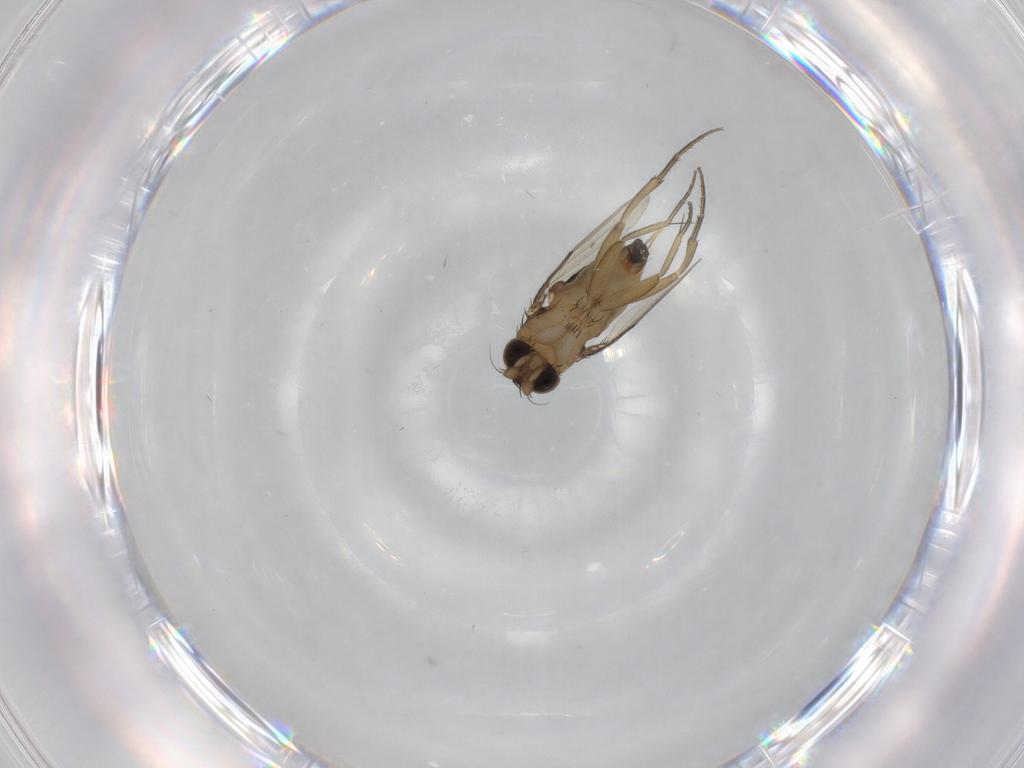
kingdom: Animalia
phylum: Arthropoda
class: Insecta
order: Diptera
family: Phoridae
